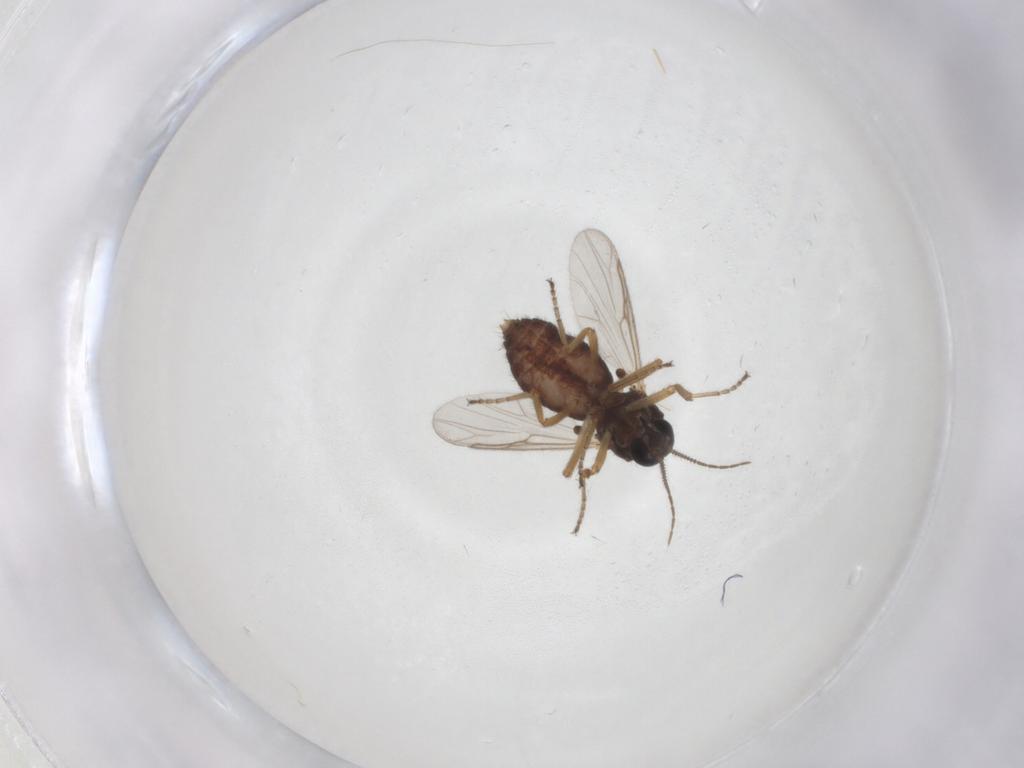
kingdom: Animalia
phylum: Arthropoda
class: Insecta
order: Diptera
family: Ceratopogonidae
